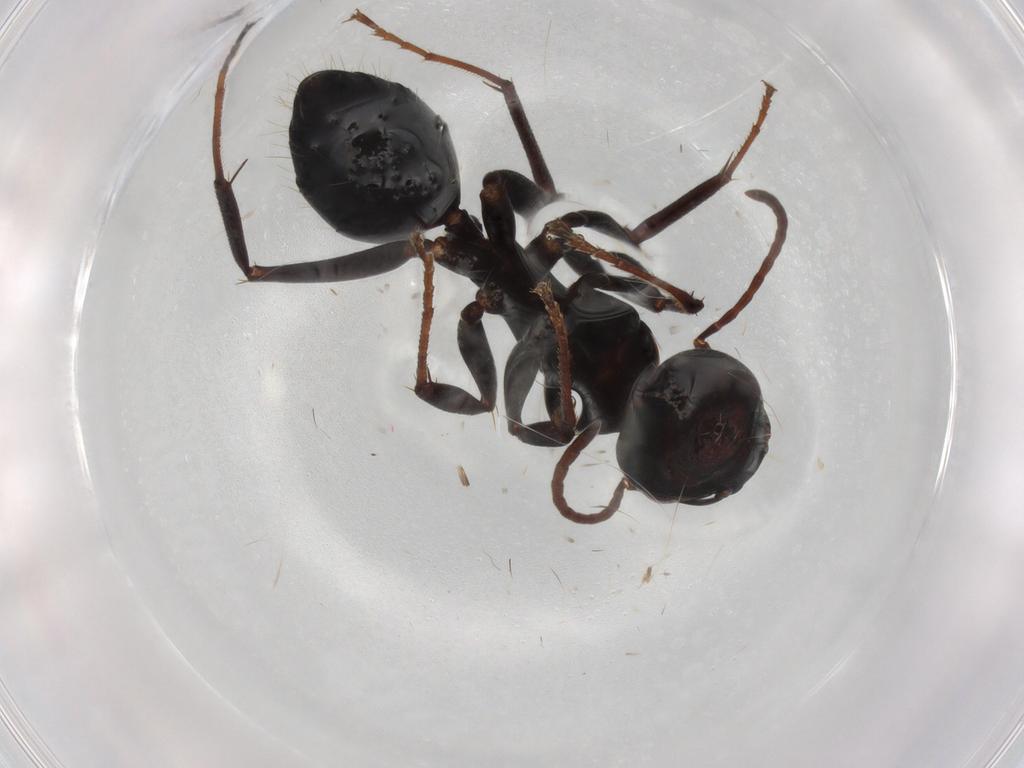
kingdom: Animalia
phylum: Arthropoda
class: Insecta
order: Hymenoptera
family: Formicidae
